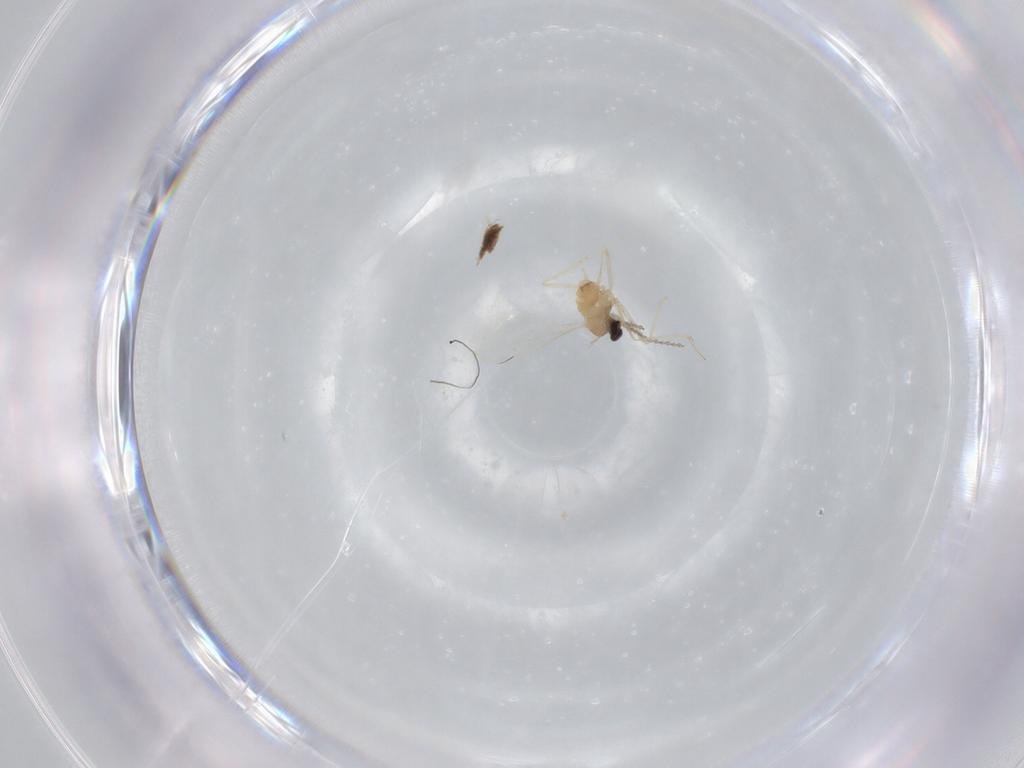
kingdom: Animalia
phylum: Arthropoda
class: Insecta
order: Diptera
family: Cecidomyiidae
